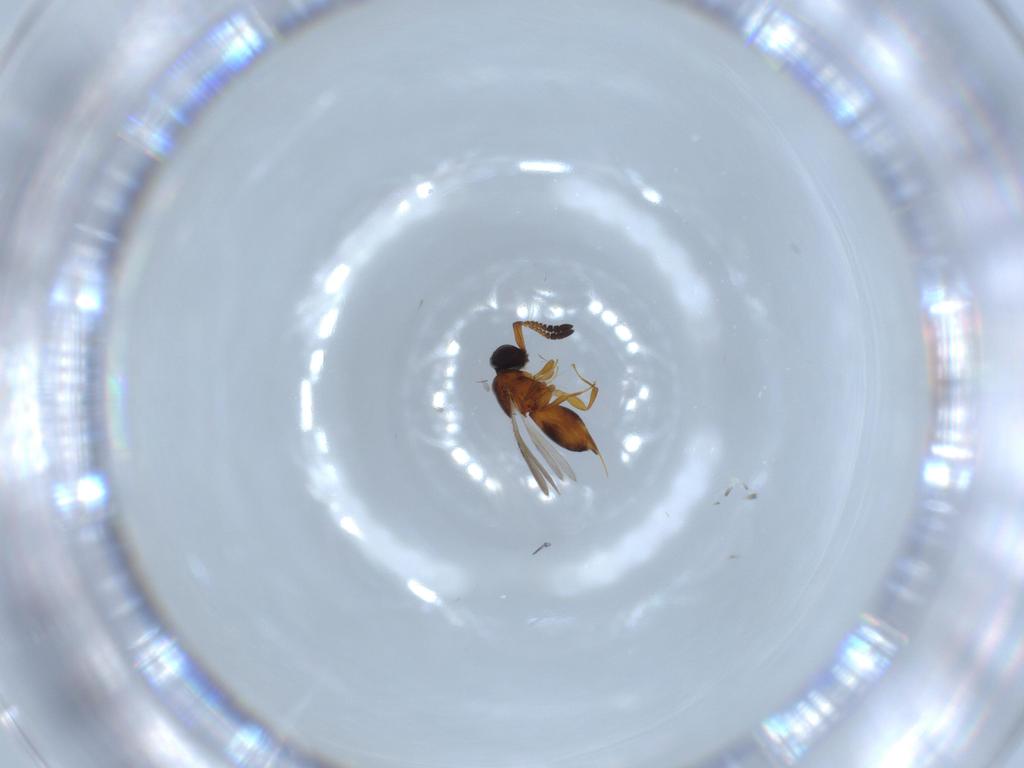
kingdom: Animalia
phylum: Arthropoda
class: Insecta
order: Hymenoptera
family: Ceraphronidae
